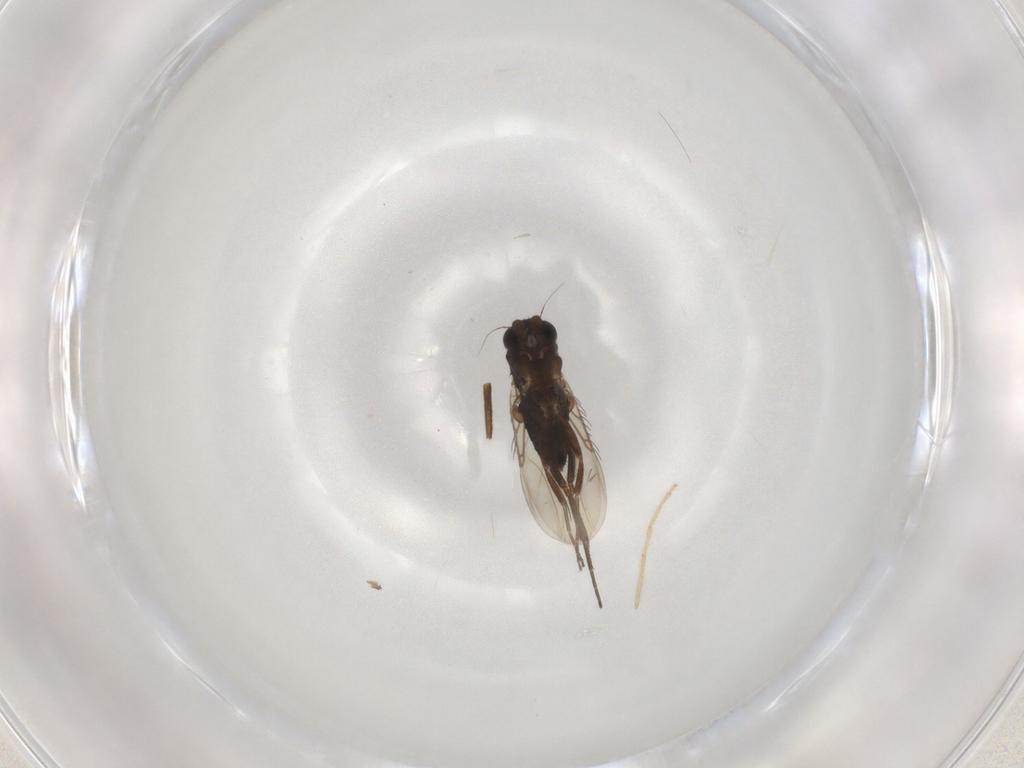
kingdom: Animalia
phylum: Arthropoda
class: Insecta
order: Diptera
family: Phoridae
